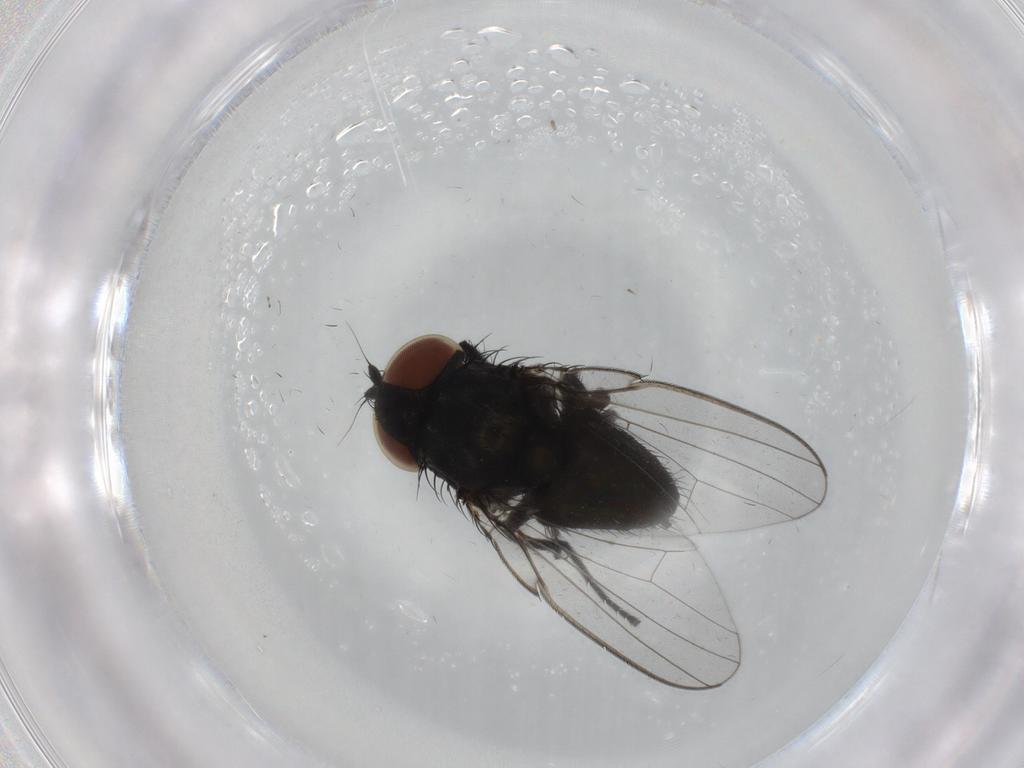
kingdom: Animalia
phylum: Arthropoda
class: Insecta
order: Diptera
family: Milichiidae
